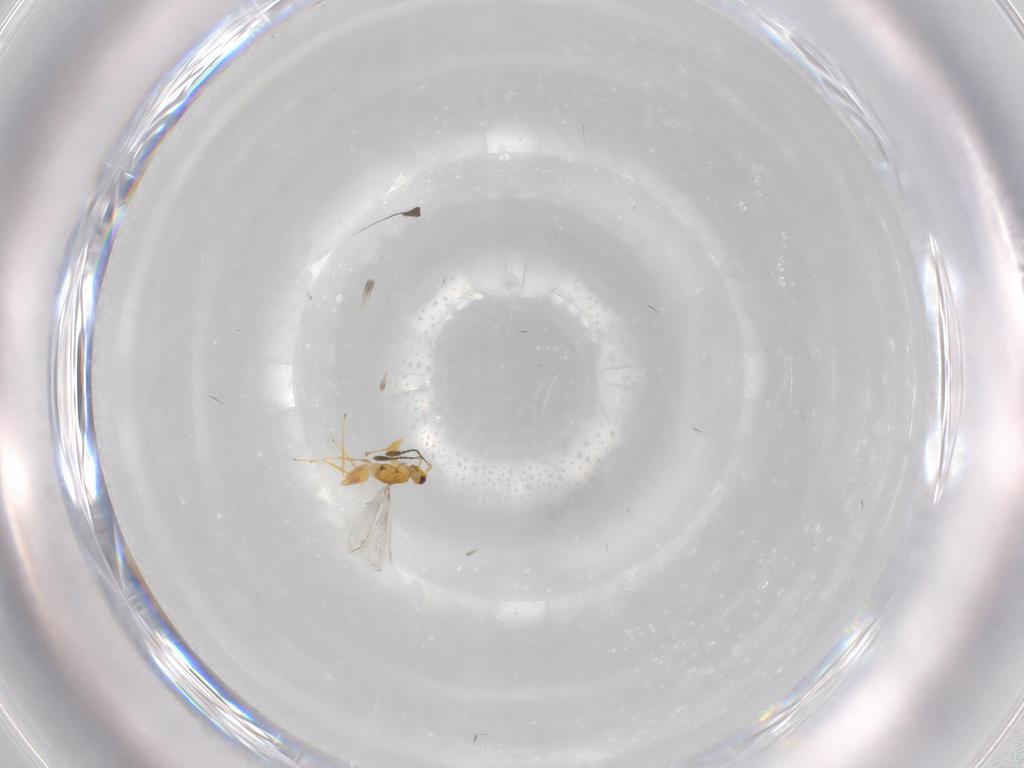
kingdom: Animalia
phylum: Arthropoda
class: Insecta
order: Hymenoptera
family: Mymaridae
